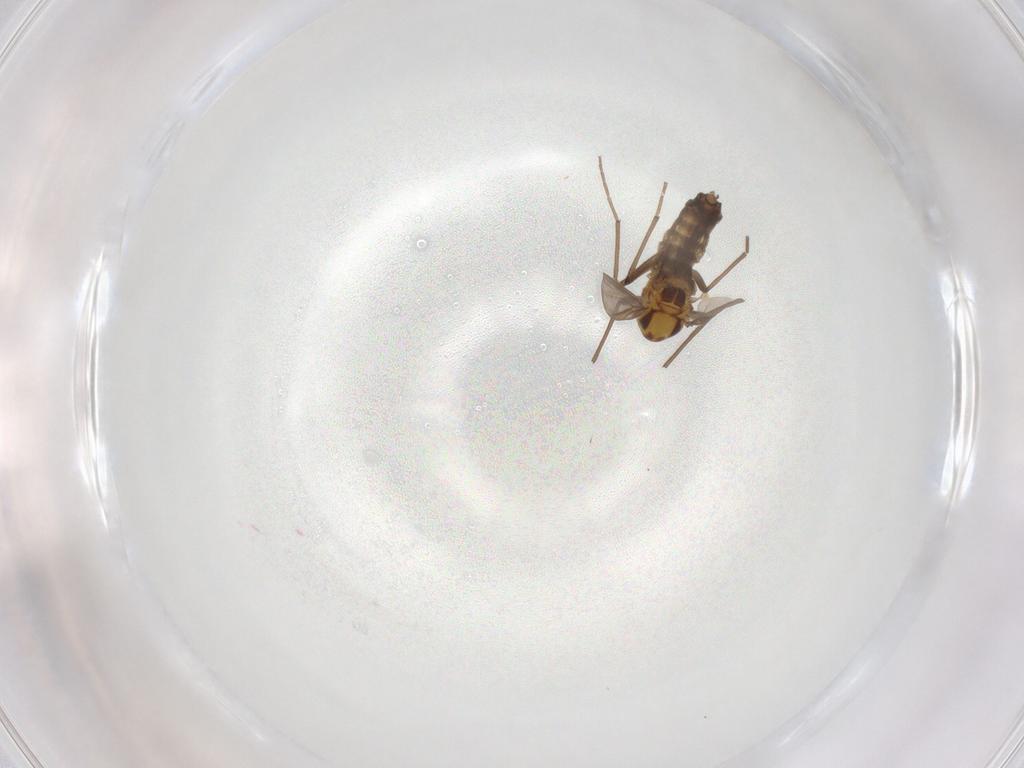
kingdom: Animalia
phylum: Arthropoda
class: Insecta
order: Diptera
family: Chironomidae
